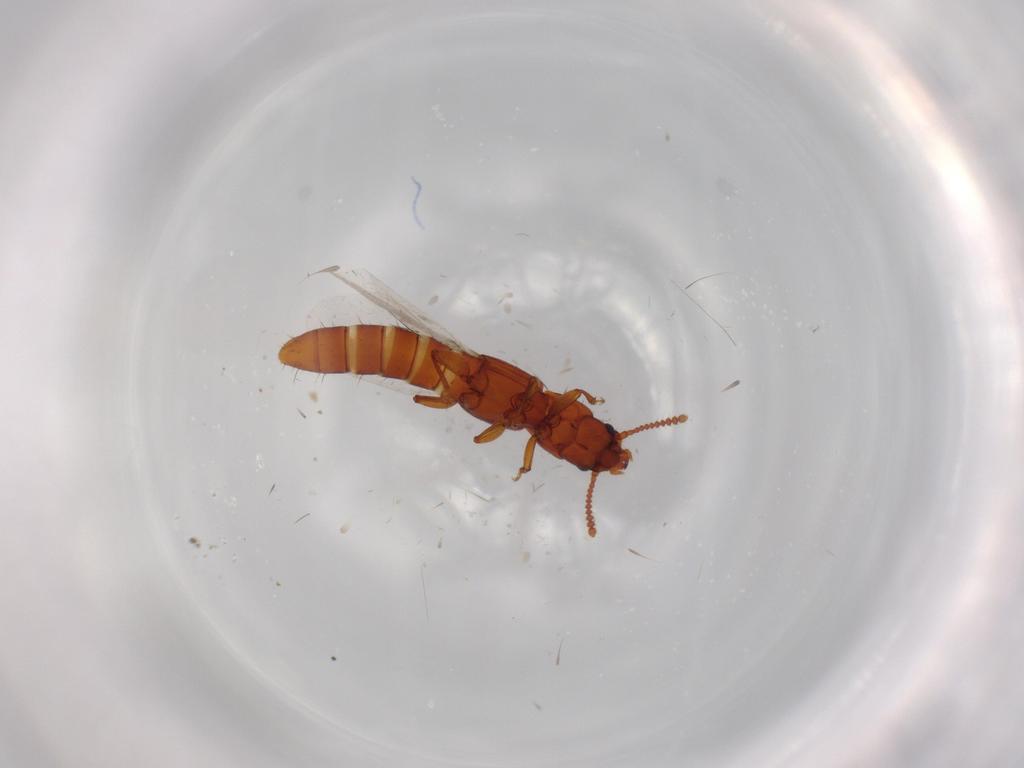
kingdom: Animalia
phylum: Arthropoda
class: Insecta
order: Coleoptera
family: Staphylinidae
